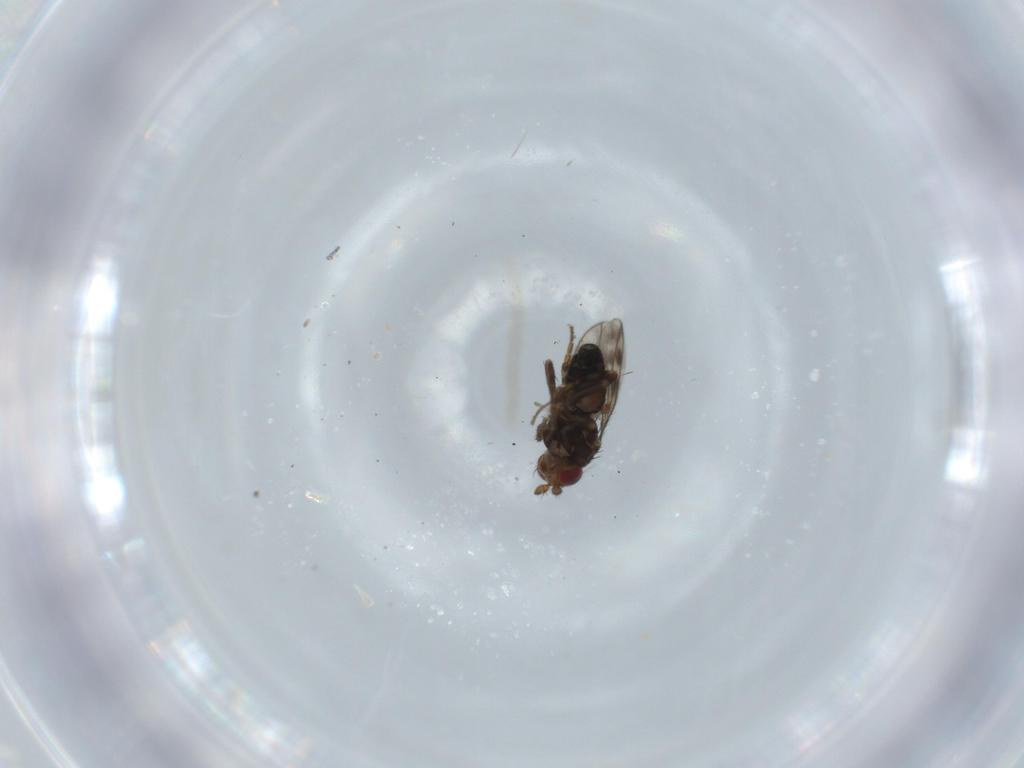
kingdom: Animalia
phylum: Arthropoda
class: Insecta
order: Diptera
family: Sphaeroceridae
